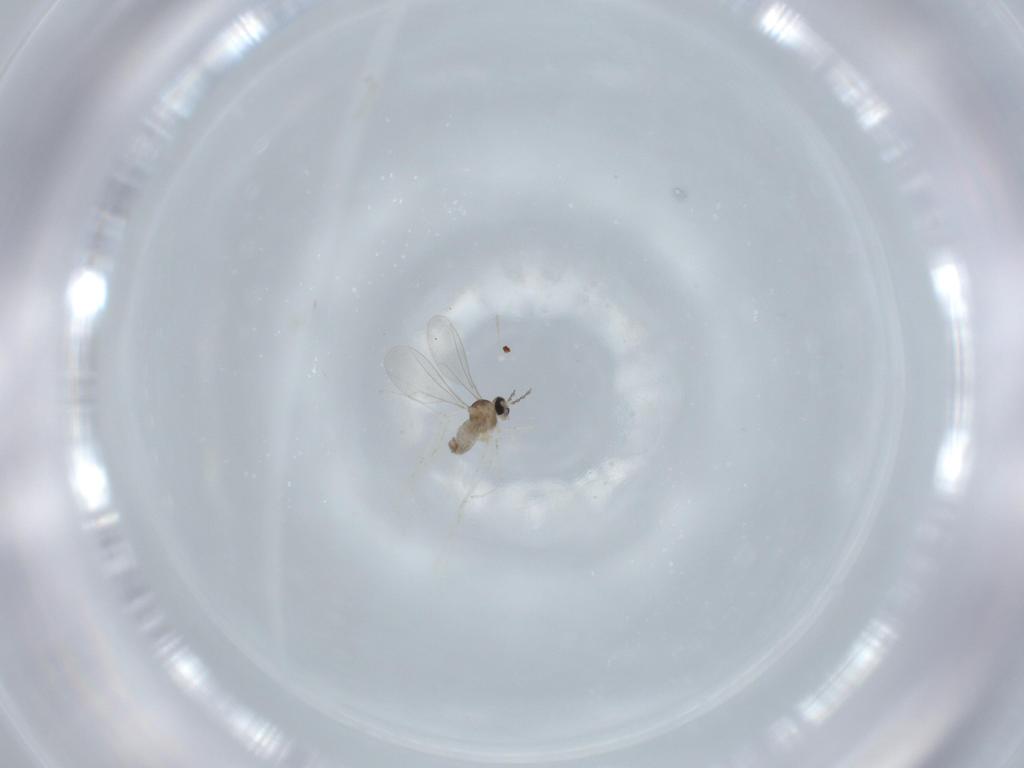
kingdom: Animalia
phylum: Arthropoda
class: Insecta
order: Diptera
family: Cecidomyiidae
